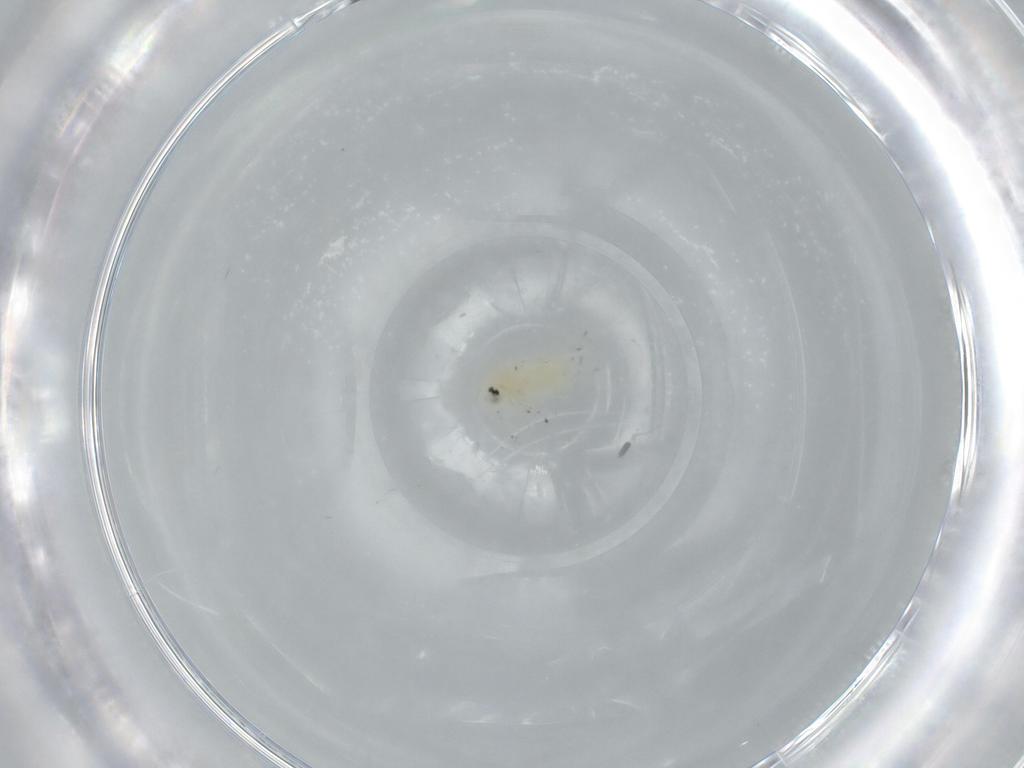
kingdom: Animalia
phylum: Arthropoda
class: Insecta
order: Hemiptera
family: Aleyrodidae
